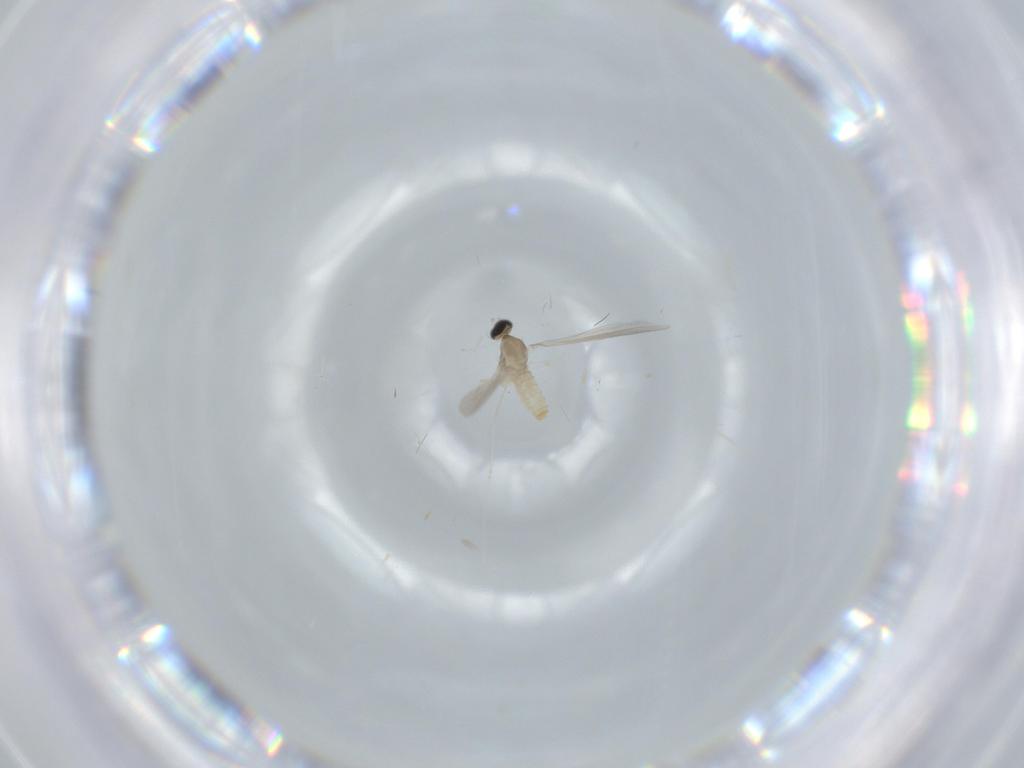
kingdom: Animalia
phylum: Arthropoda
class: Insecta
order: Diptera
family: Cecidomyiidae
